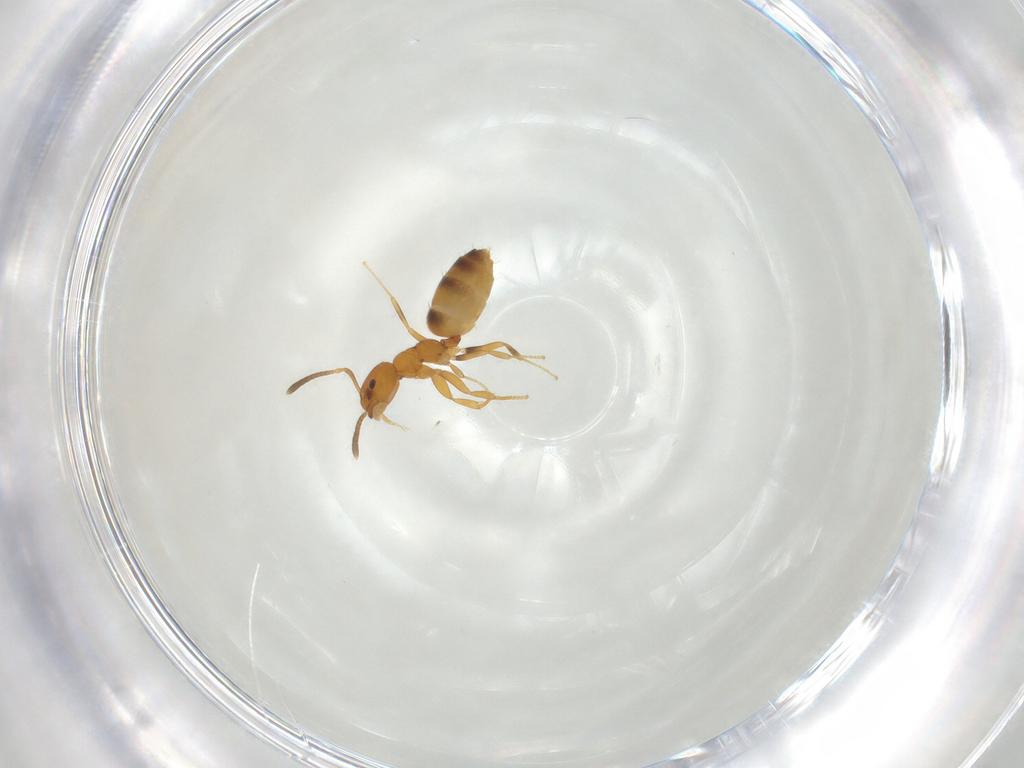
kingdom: Animalia
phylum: Arthropoda
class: Insecta
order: Hymenoptera
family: Formicidae
